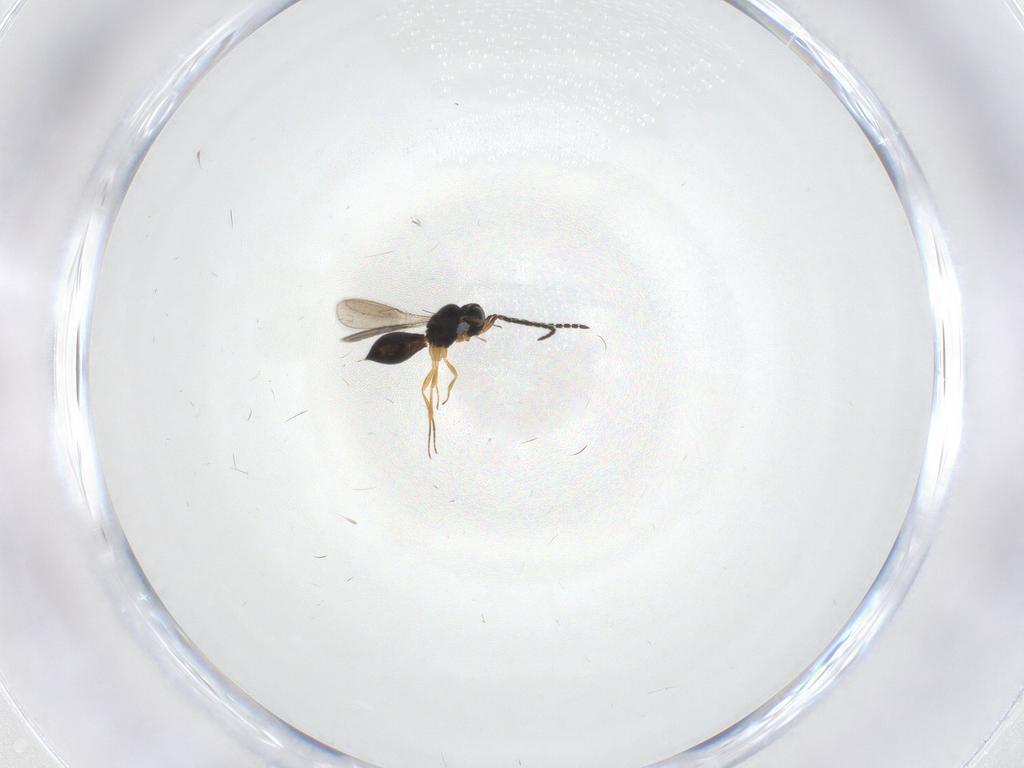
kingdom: Animalia
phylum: Arthropoda
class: Insecta
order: Hymenoptera
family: Scelionidae
